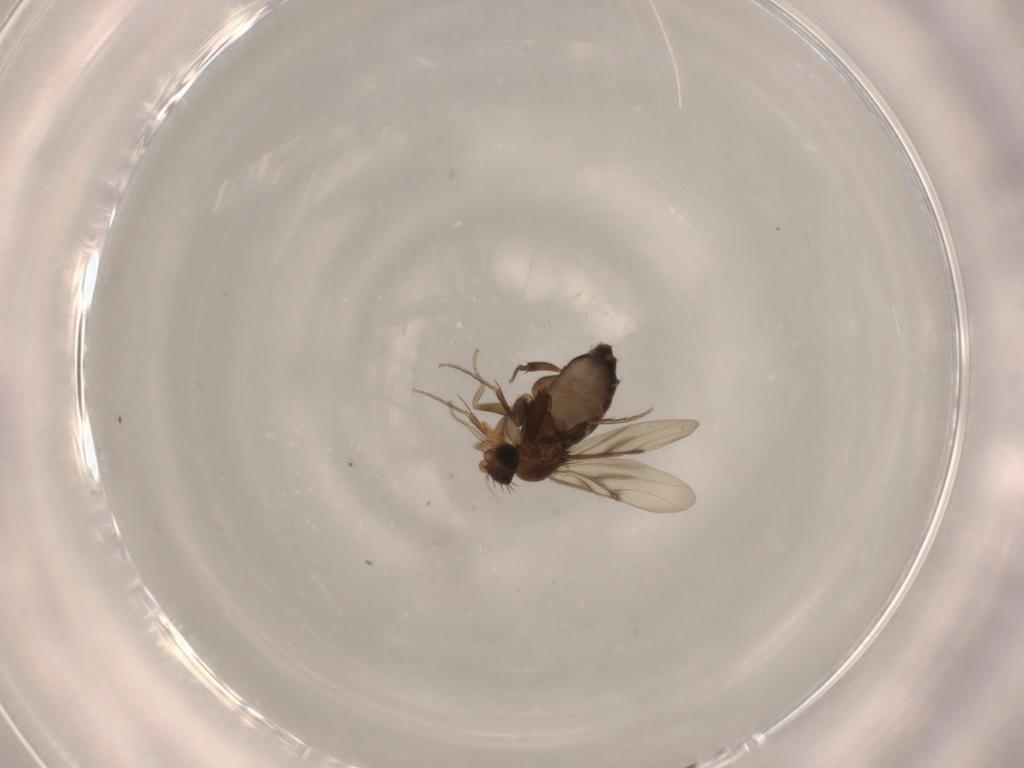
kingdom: Animalia
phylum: Arthropoda
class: Insecta
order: Diptera
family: Phoridae
